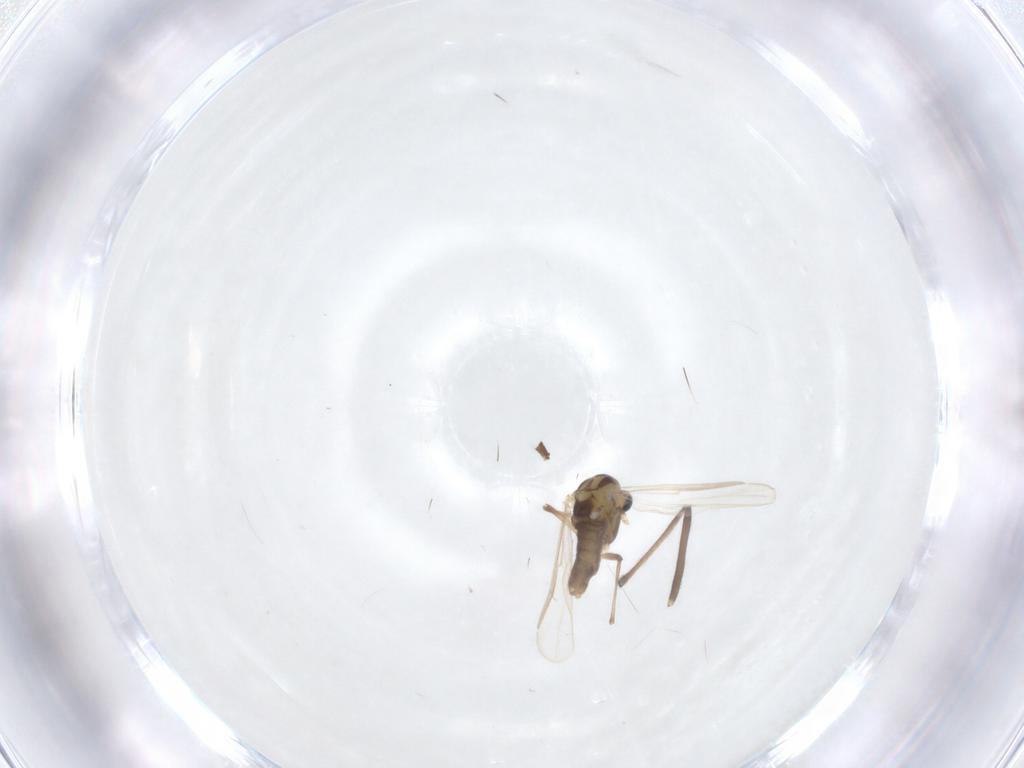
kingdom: Animalia
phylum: Arthropoda
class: Insecta
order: Diptera
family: Chironomidae
